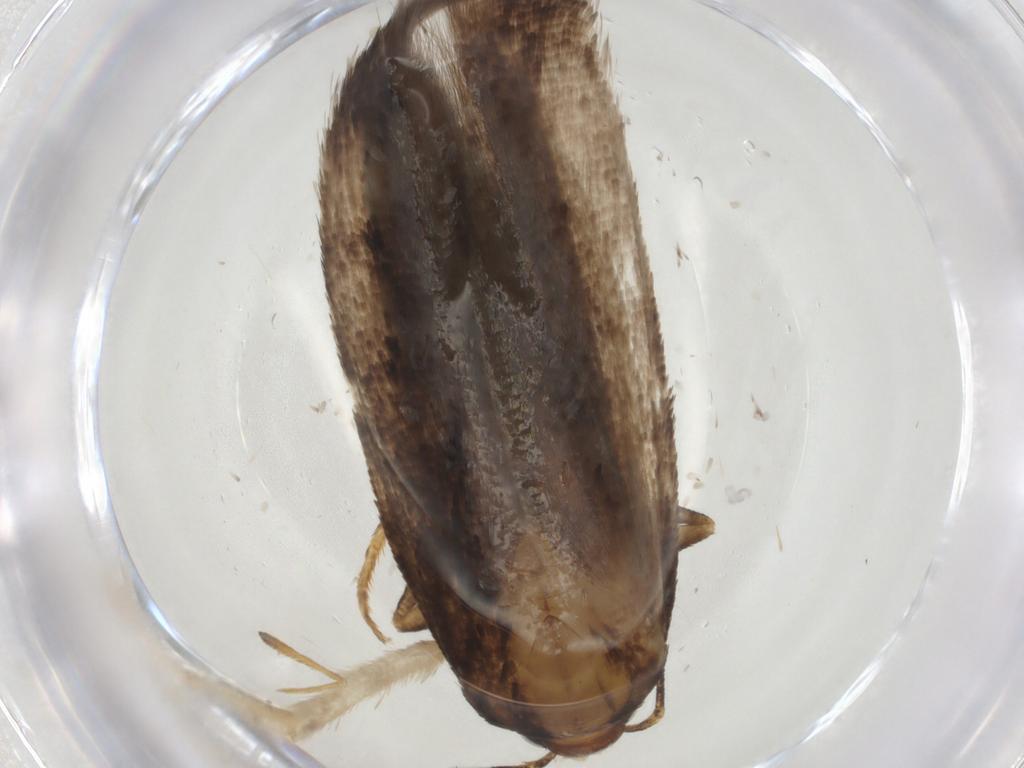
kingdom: Animalia
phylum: Arthropoda
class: Insecta
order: Lepidoptera
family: Gelechiidae
